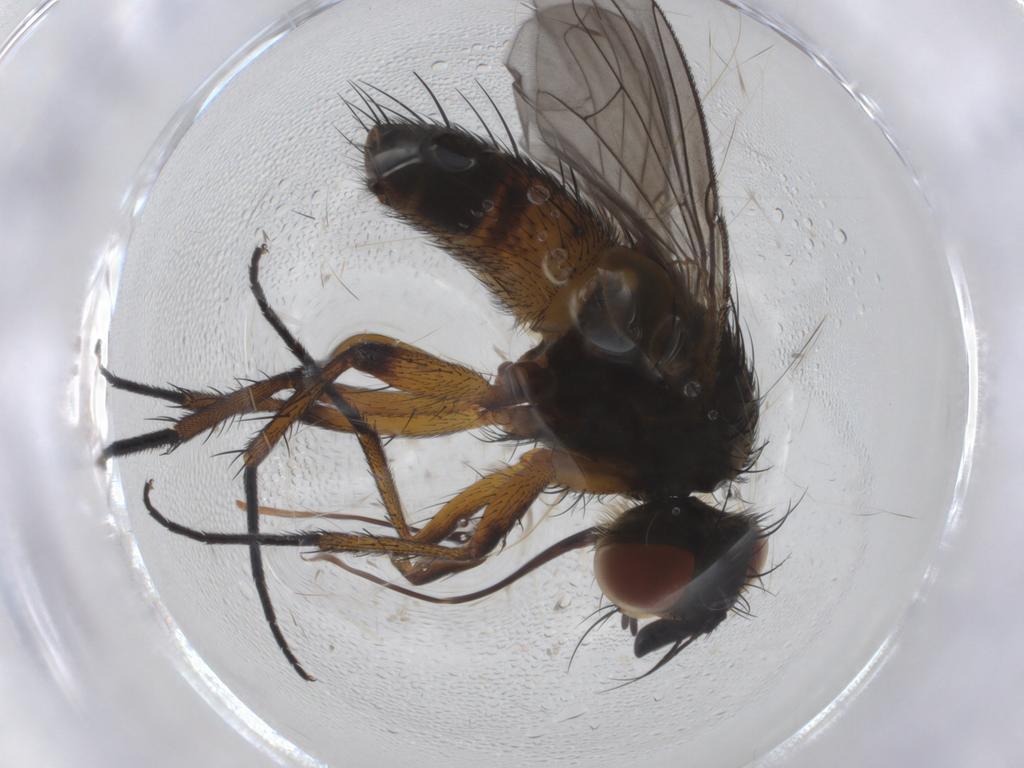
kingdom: Animalia
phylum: Arthropoda
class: Insecta
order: Diptera
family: Tachinidae
